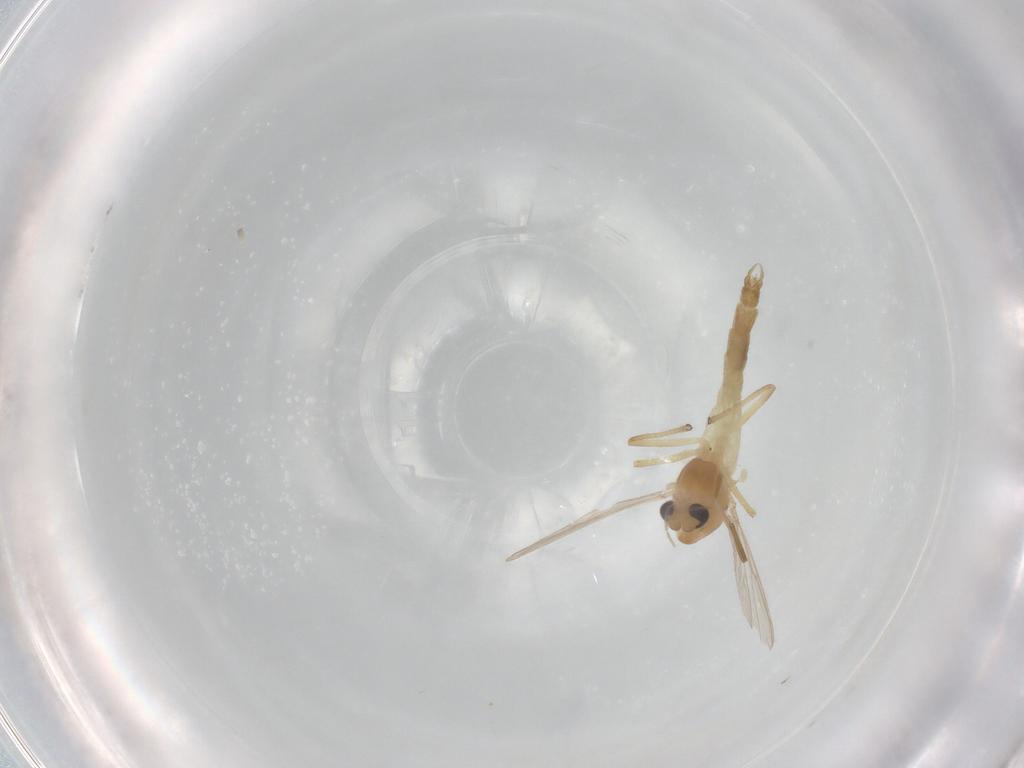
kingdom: Animalia
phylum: Arthropoda
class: Insecta
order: Diptera
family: Chironomidae
